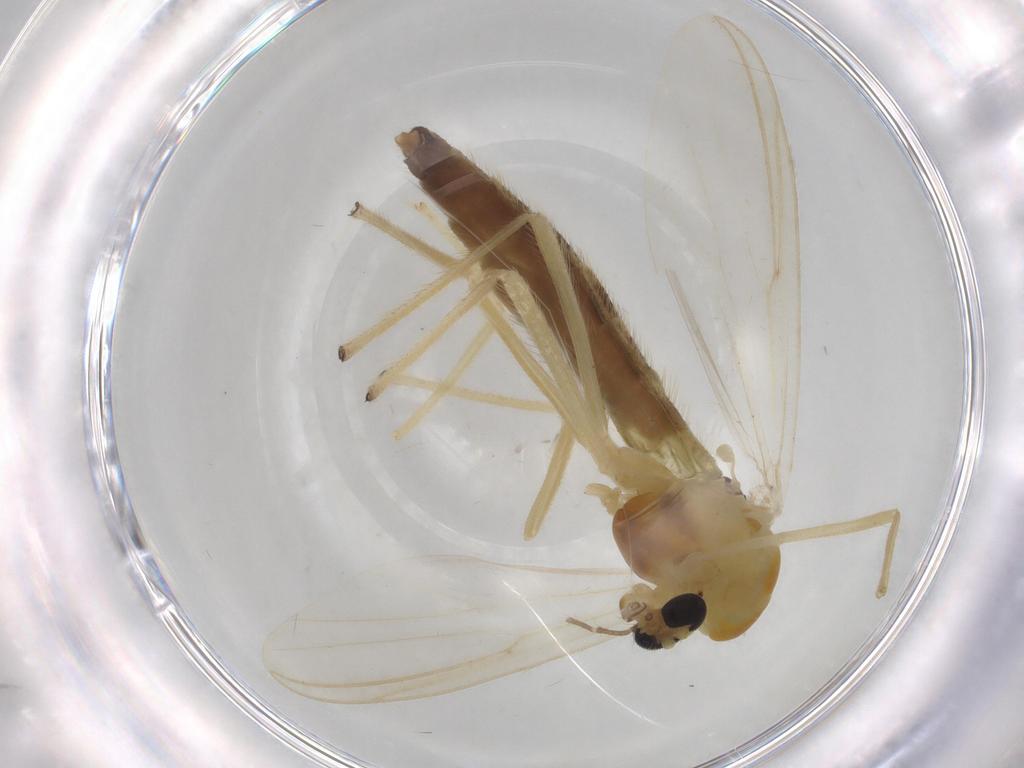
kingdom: Animalia
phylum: Arthropoda
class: Insecta
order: Diptera
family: Chironomidae
